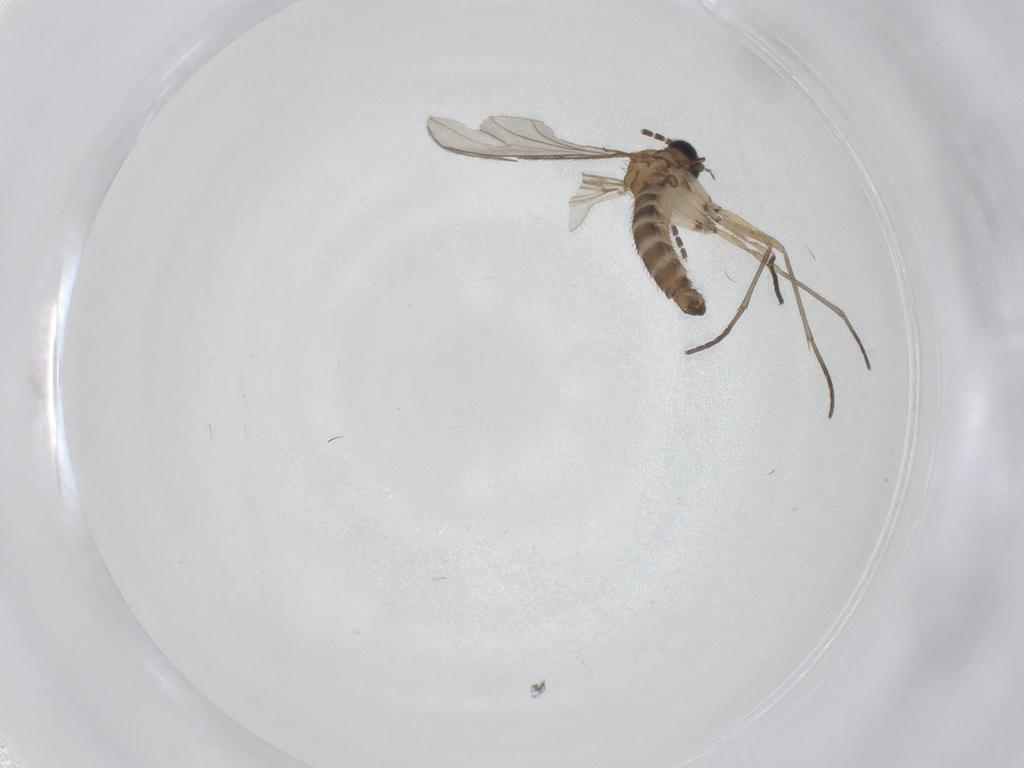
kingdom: Animalia
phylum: Arthropoda
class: Insecta
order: Diptera
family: Sciaridae
